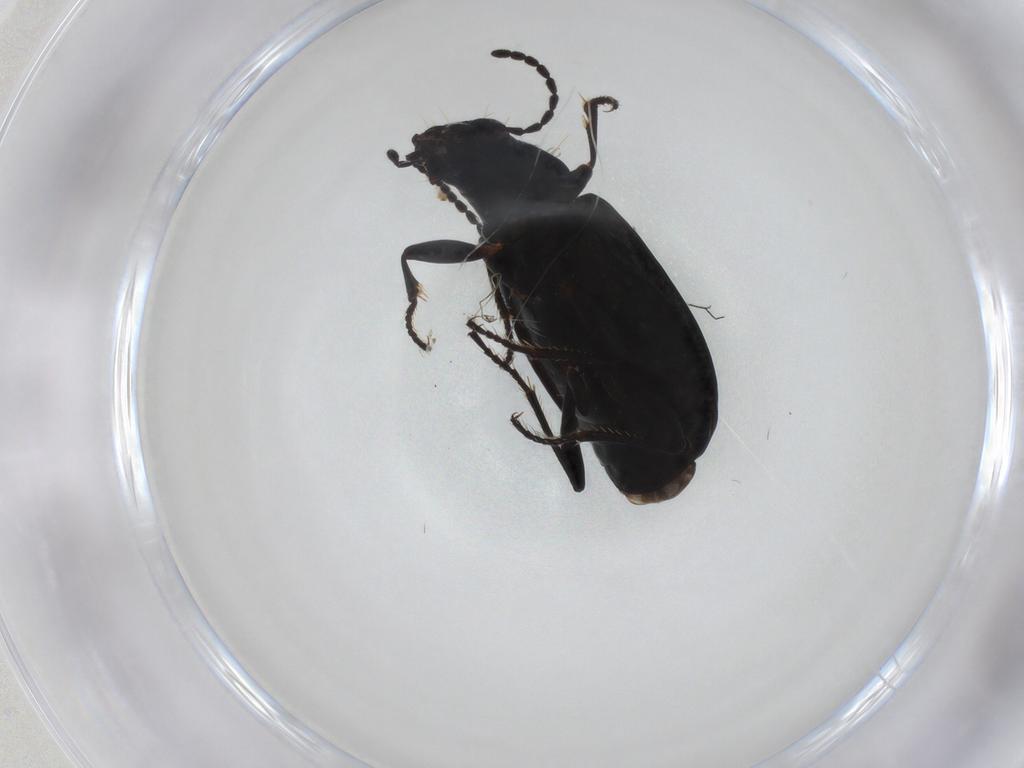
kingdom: Animalia
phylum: Arthropoda
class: Insecta
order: Coleoptera
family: Carabidae
